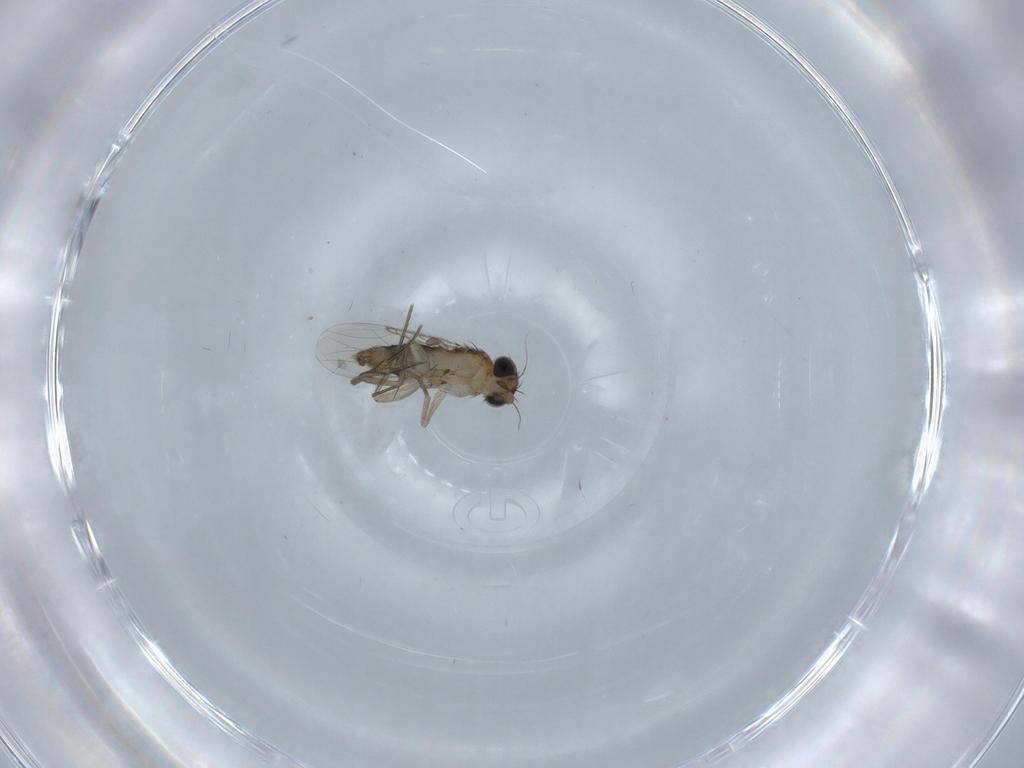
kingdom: Animalia
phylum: Arthropoda
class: Insecta
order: Diptera
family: Phoridae
